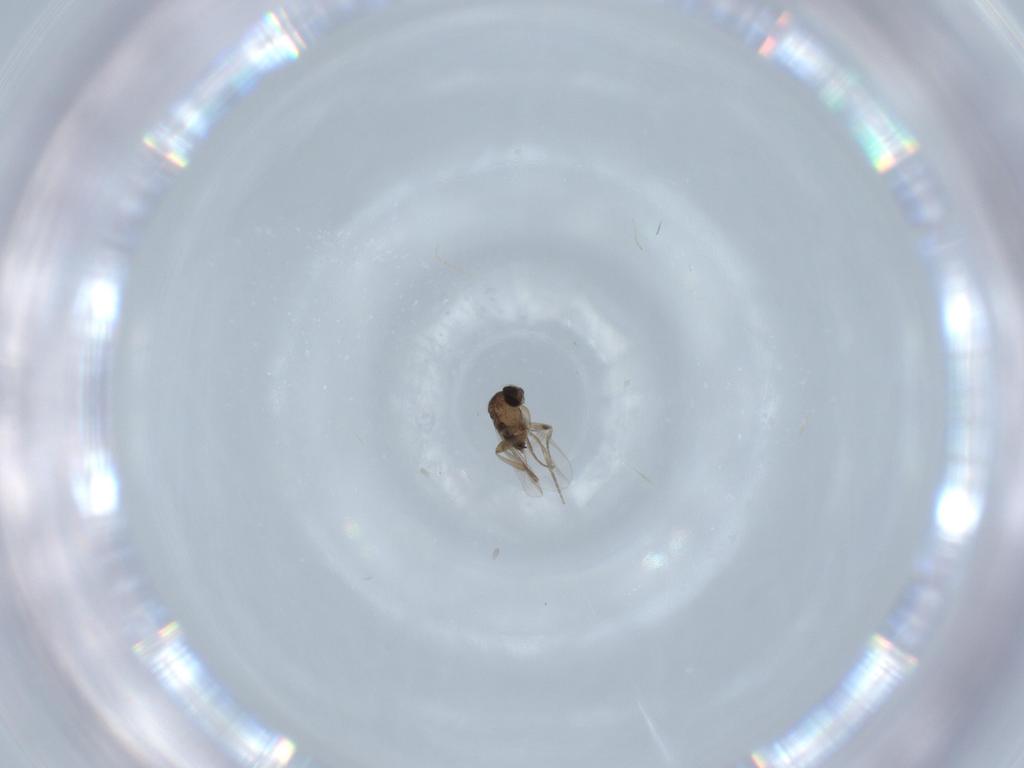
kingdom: Animalia
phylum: Arthropoda
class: Insecta
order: Diptera
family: Phoridae
